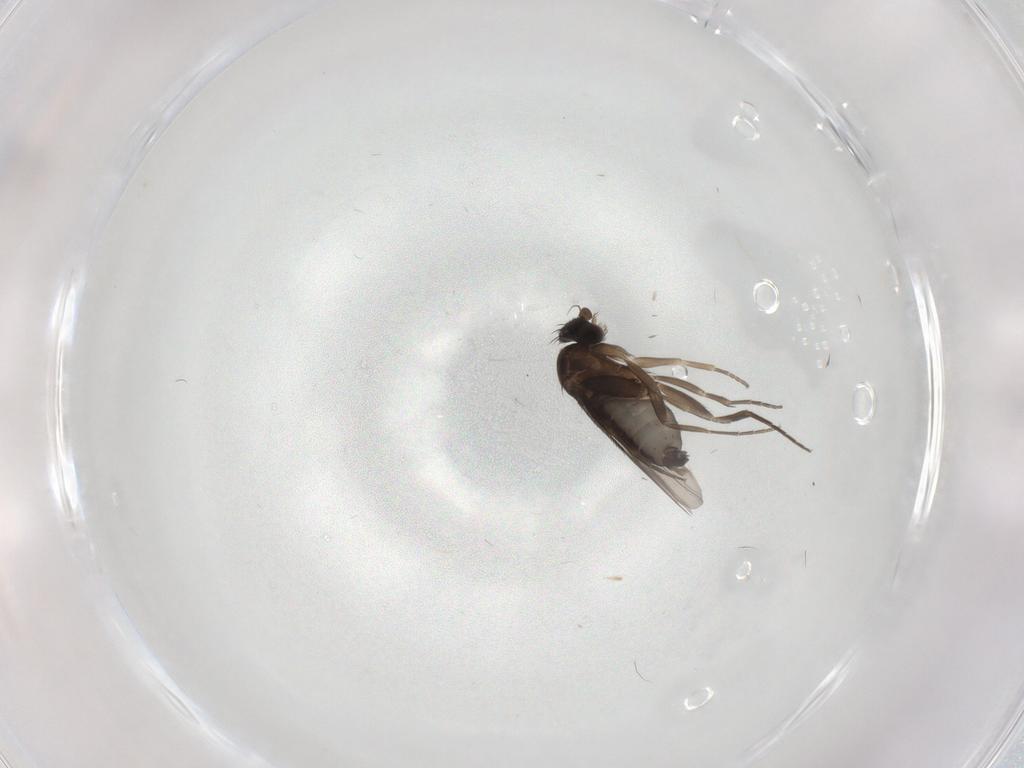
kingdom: Animalia
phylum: Arthropoda
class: Insecta
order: Diptera
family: Phoridae
